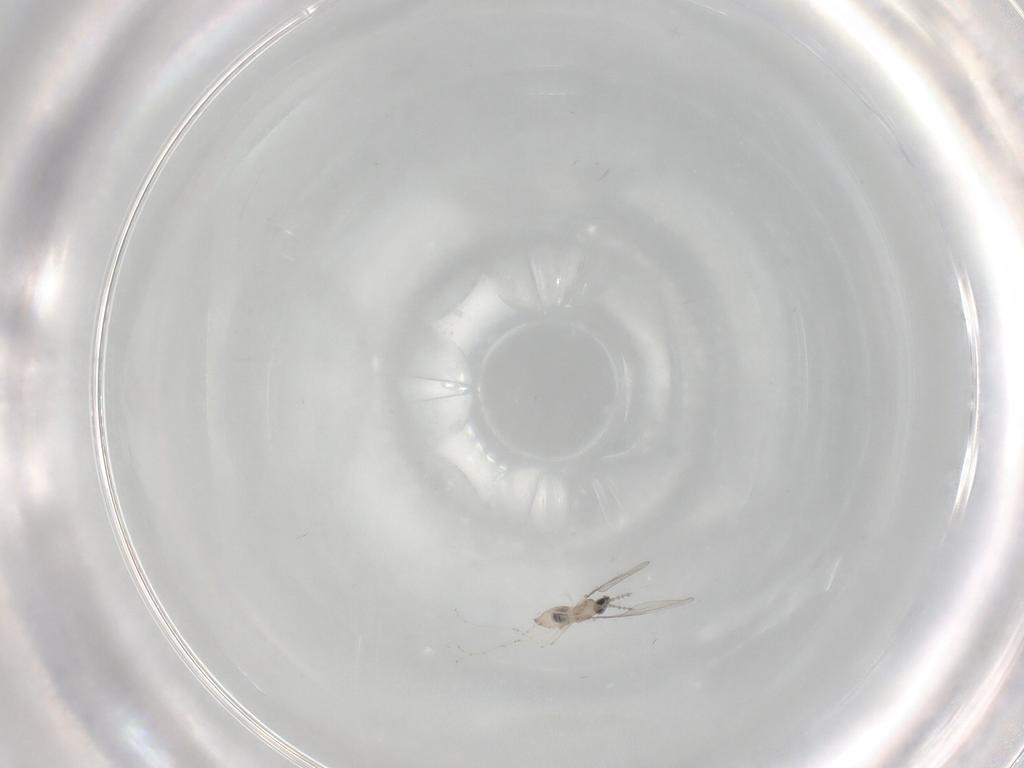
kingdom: Animalia
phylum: Arthropoda
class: Insecta
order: Diptera
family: Cecidomyiidae
